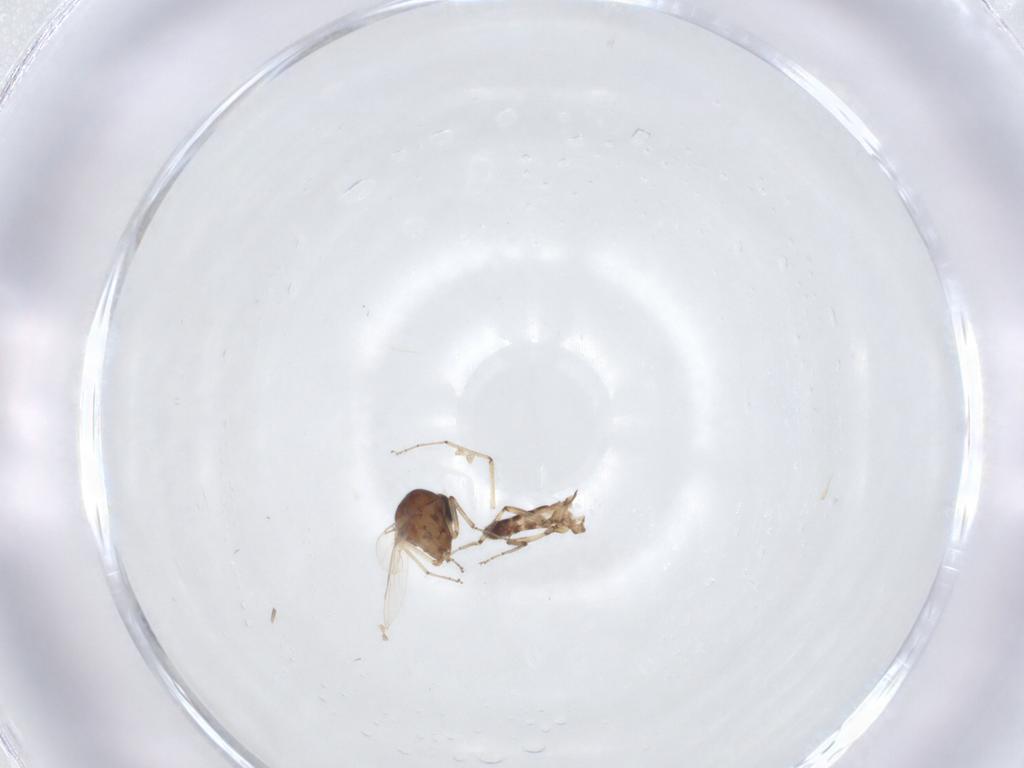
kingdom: Animalia
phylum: Arthropoda
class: Insecta
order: Diptera
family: Ceratopogonidae
